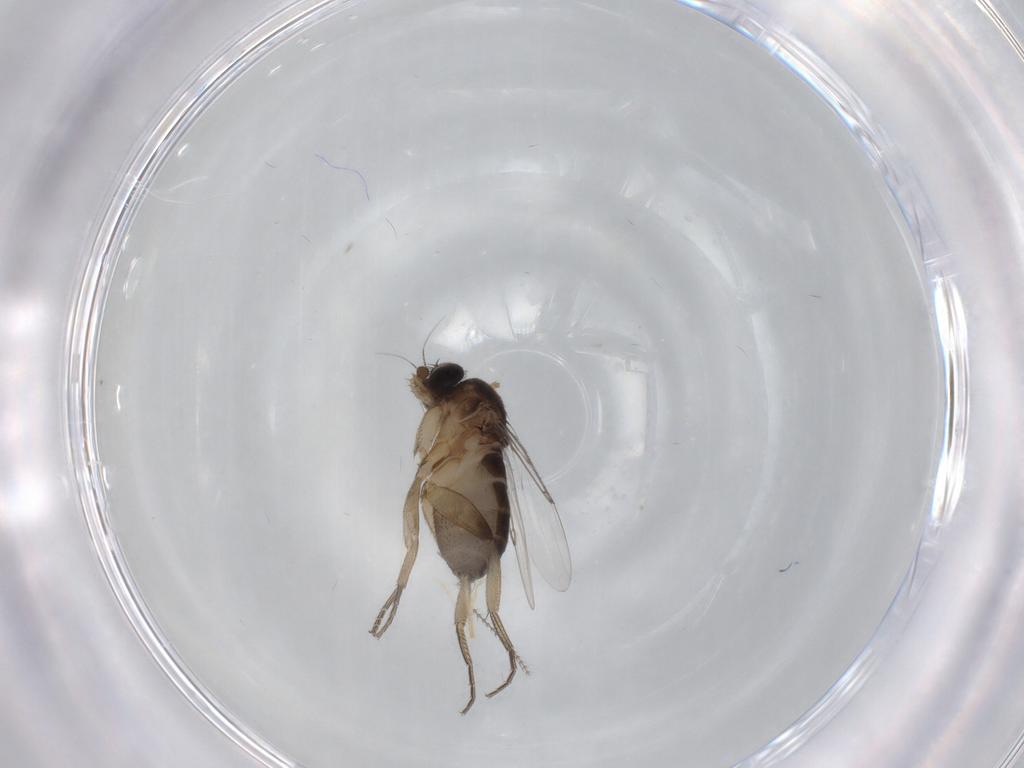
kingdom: Animalia
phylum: Arthropoda
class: Insecta
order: Diptera
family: Phoridae
